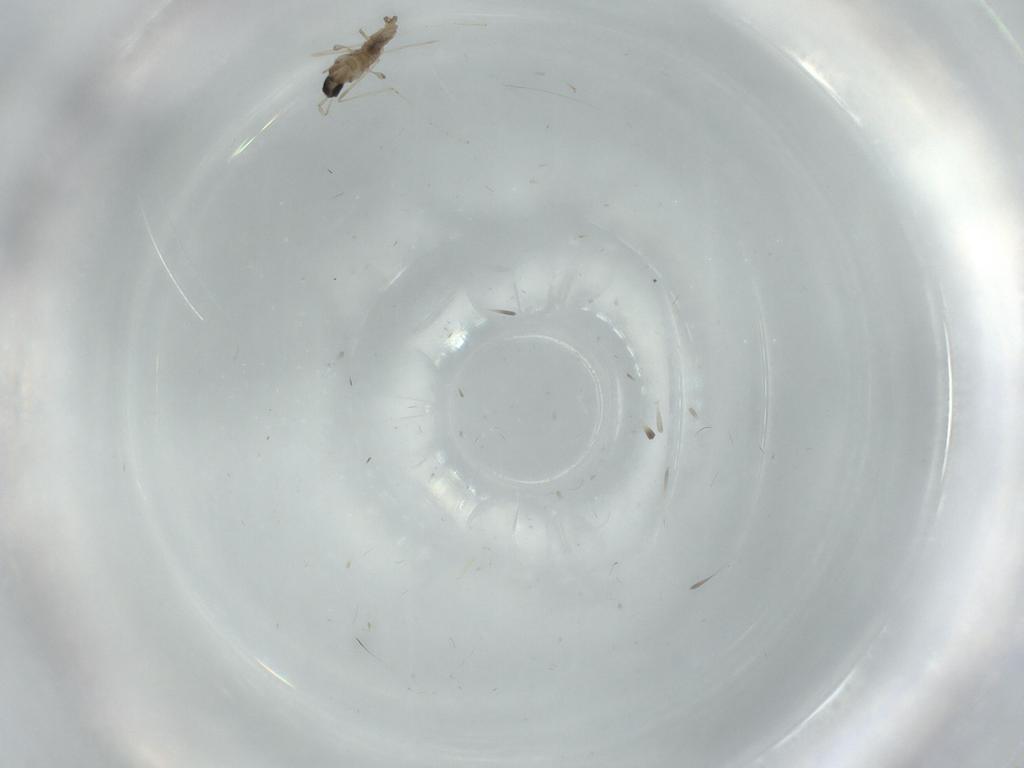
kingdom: Animalia
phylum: Arthropoda
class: Insecta
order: Diptera
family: Cecidomyiidae
